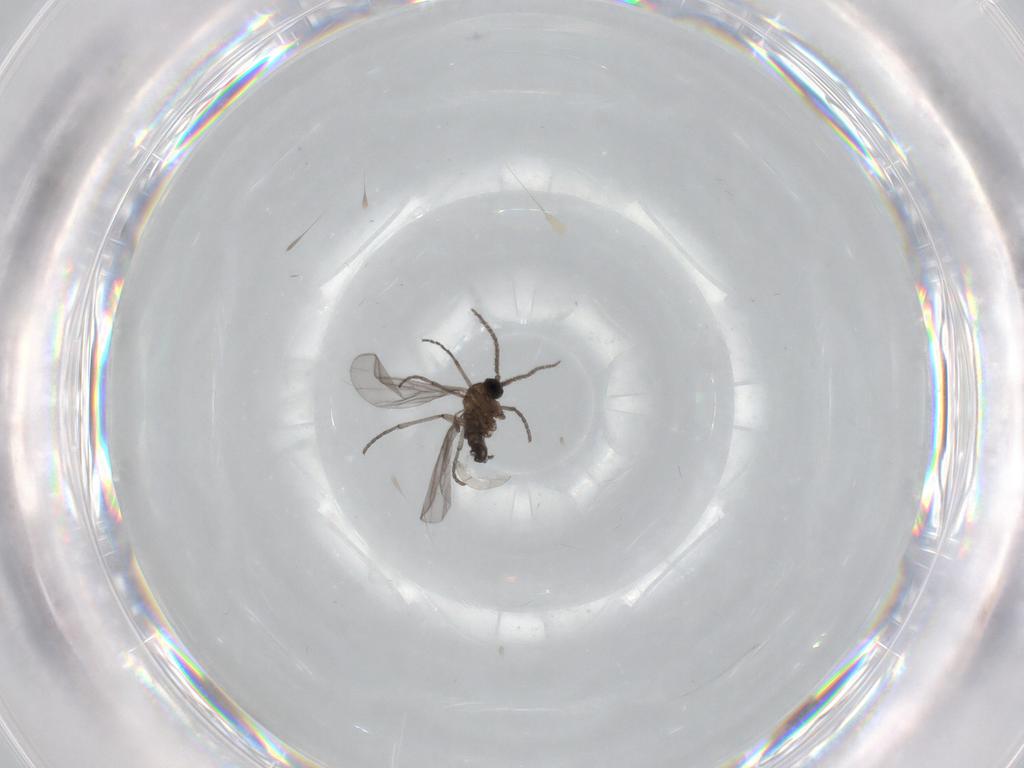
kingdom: Animalia
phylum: Arthropoda
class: Insecta
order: Diptera
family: Sciaridae
